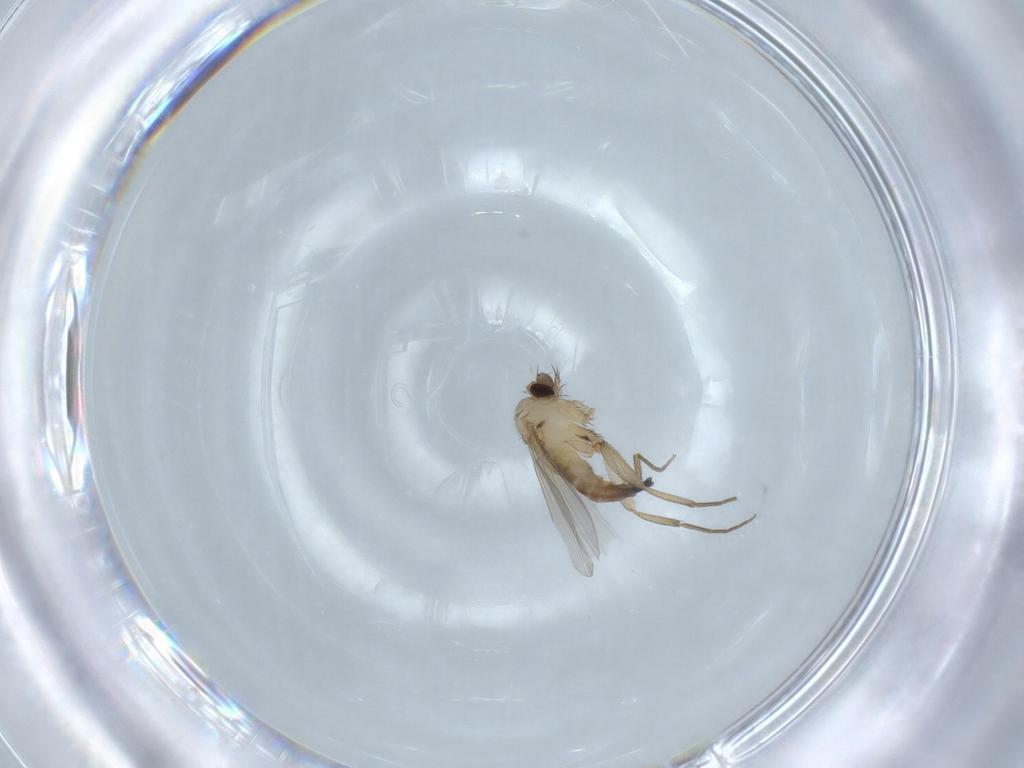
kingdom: Animalia
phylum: Arthropoda
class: Insecta
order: Diptera
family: Phoridae
